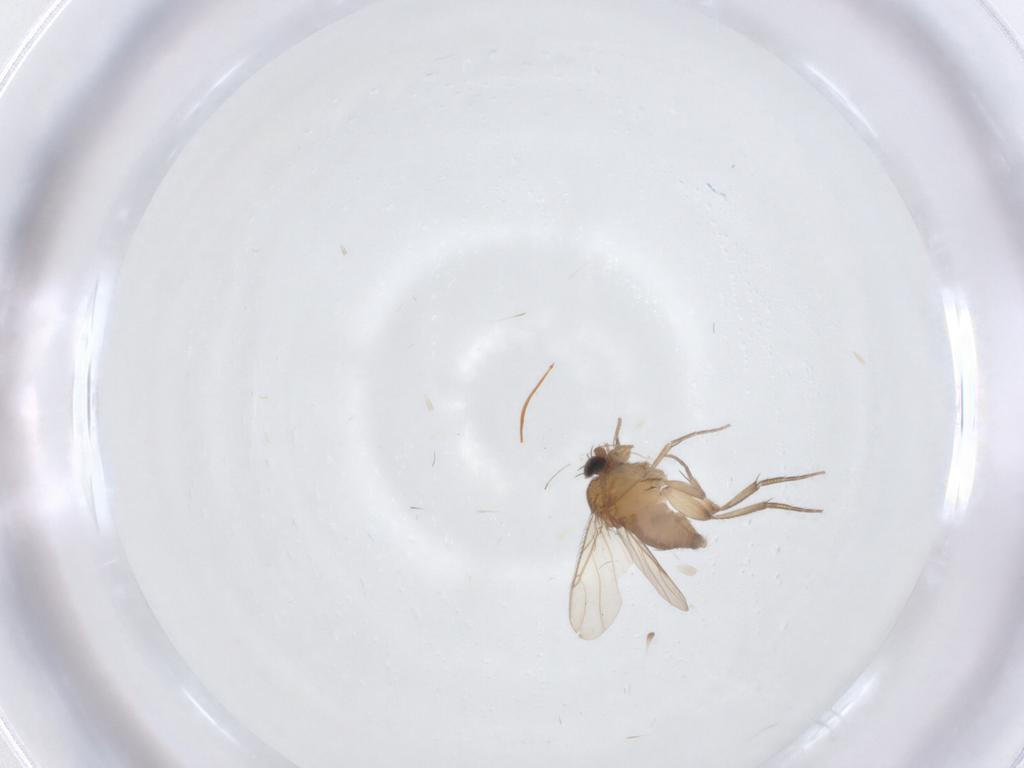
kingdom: Animalia
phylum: Arthropoda
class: Insecta
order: Diptera
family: Phoridae
